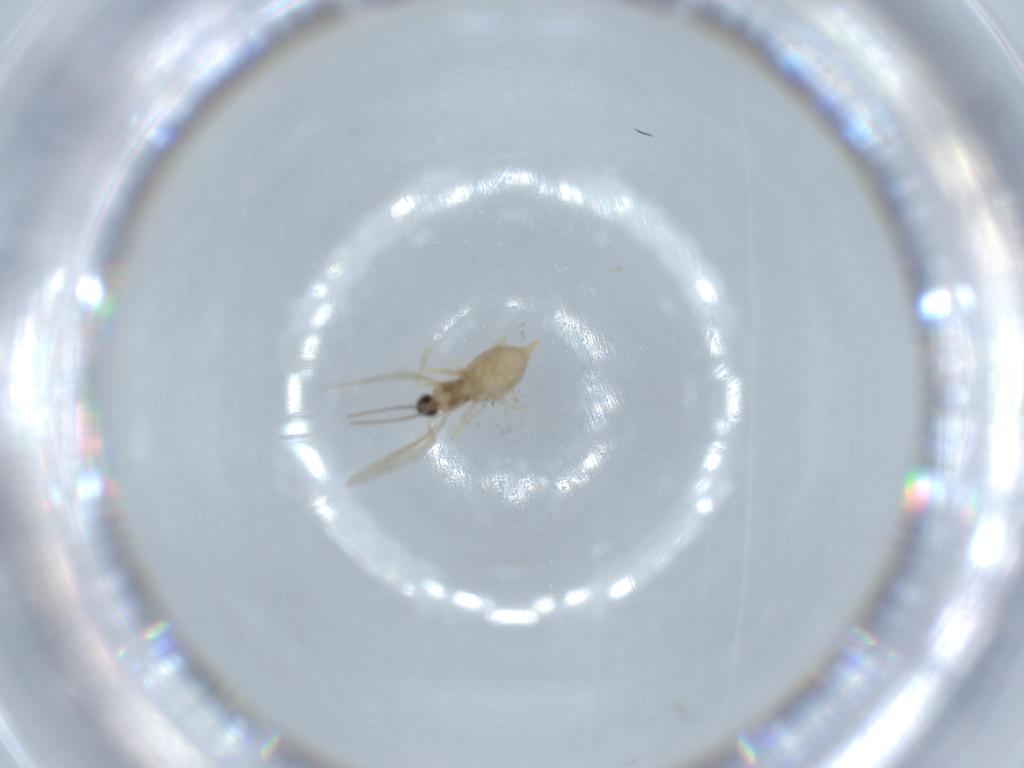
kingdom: Animalia
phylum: Arthropoda
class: Insecta
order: Diptera
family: Cecidomyiidae
